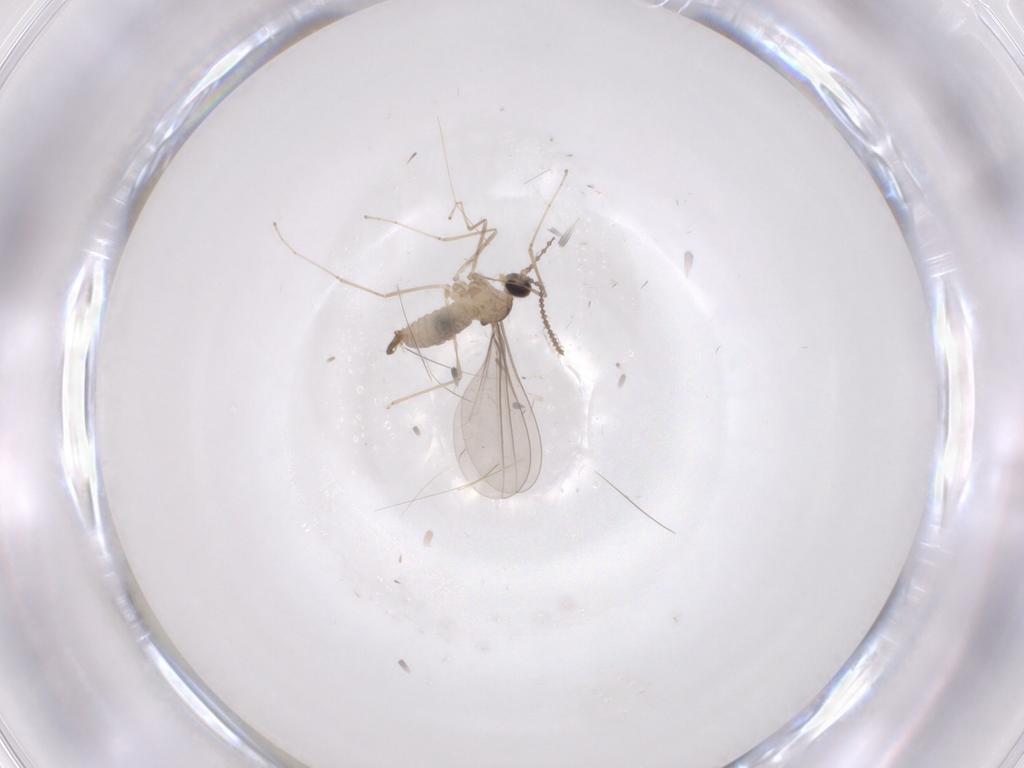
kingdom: Animalia
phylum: Arthropoda
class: Insecta
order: Diptera
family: Cecidomyiidae
